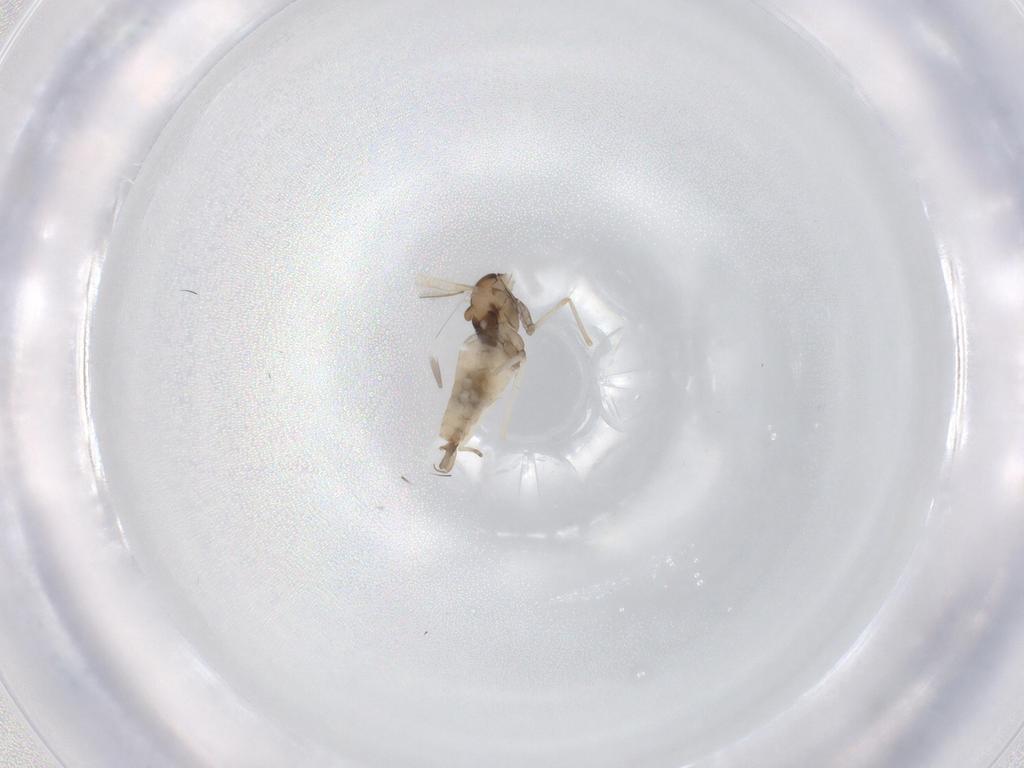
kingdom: Animalia
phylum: Arthropoda
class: Insecta
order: Diptera
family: Cecidomyiidae
